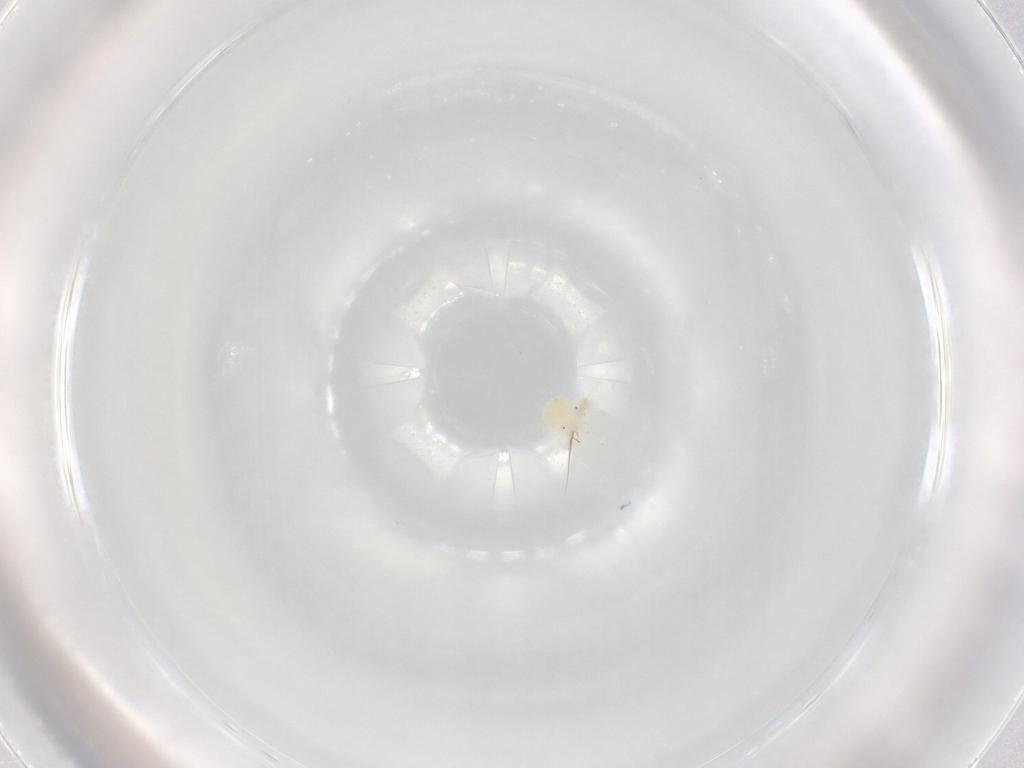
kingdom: Animalia
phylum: Arthropoda
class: Arachnida
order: Trombidiformes
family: Anystidae
